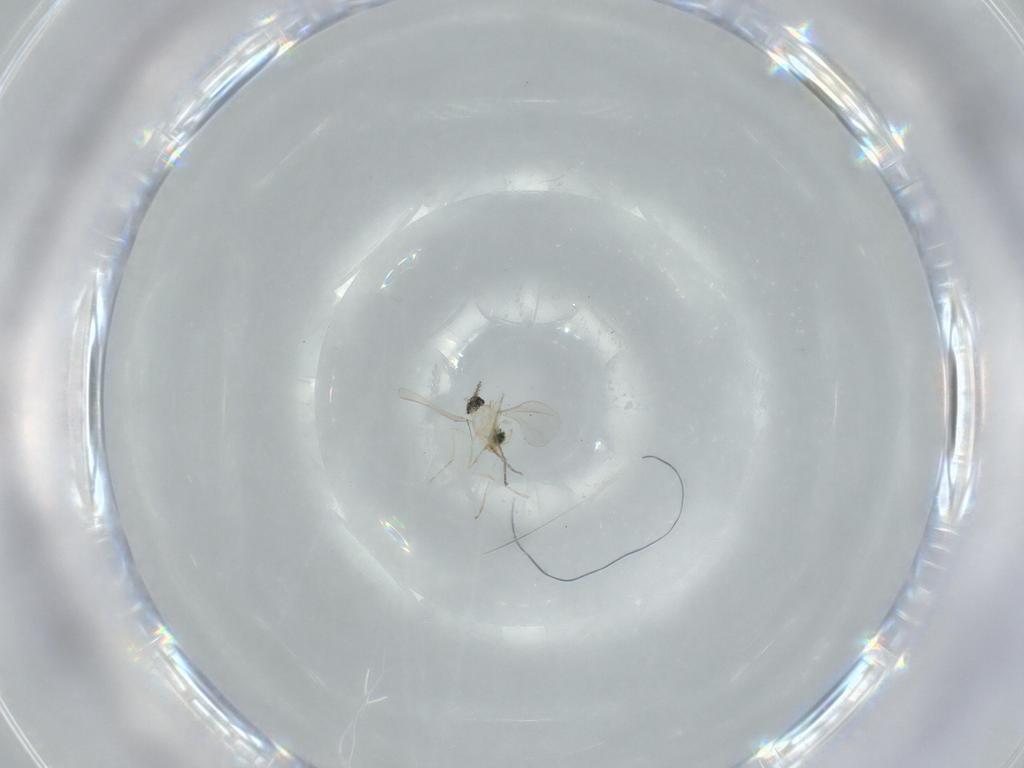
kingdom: Animalia
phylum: Arthropoda
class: Insecta
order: Diptera
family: Cecidomyiidae
